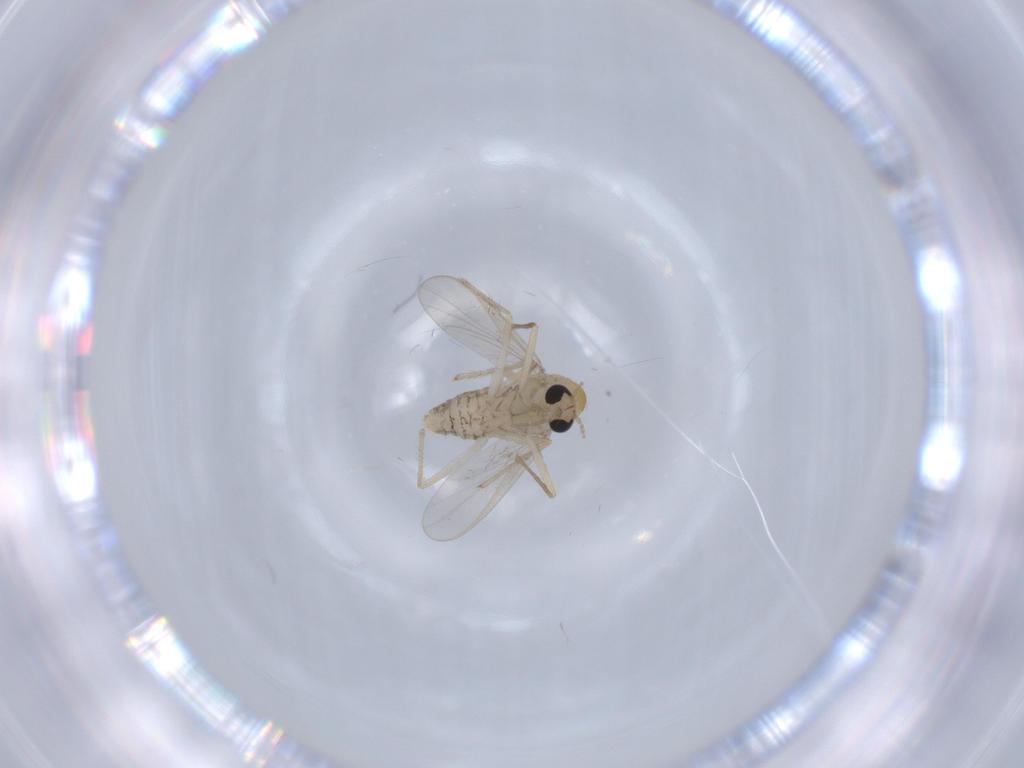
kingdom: Animalia
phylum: Arthropoda
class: Insecta
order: Diptera
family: Chironomidae
